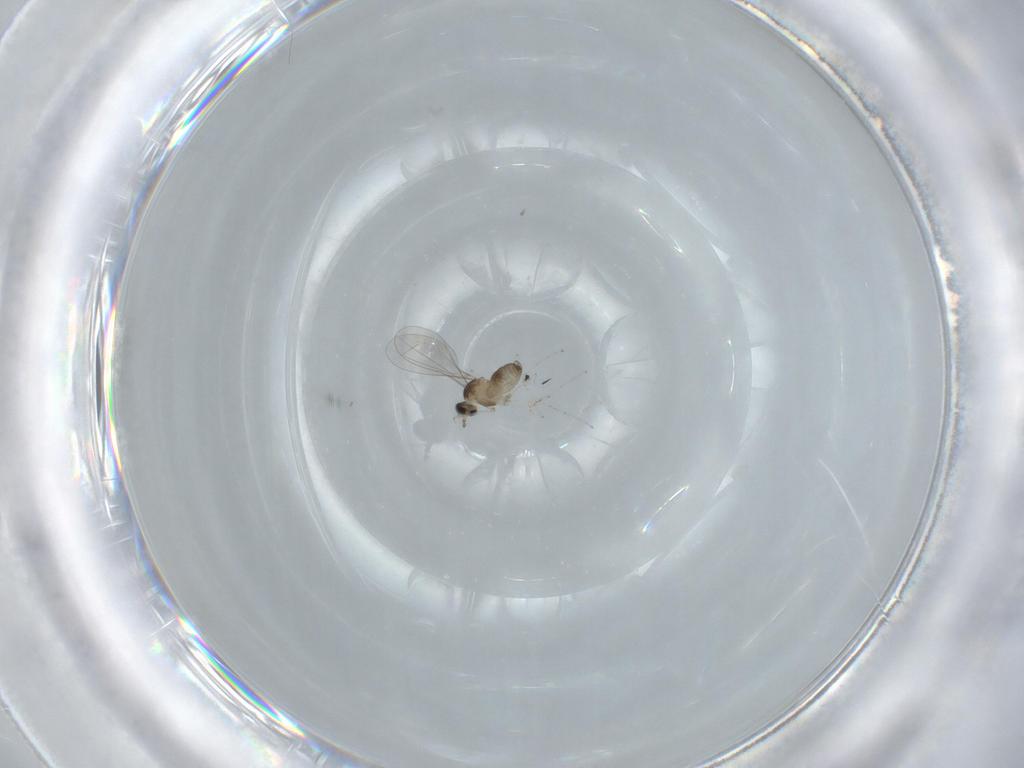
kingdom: Animalia
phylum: Arthropoda
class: Insecta
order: Diptera
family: Cecidomyiidae
